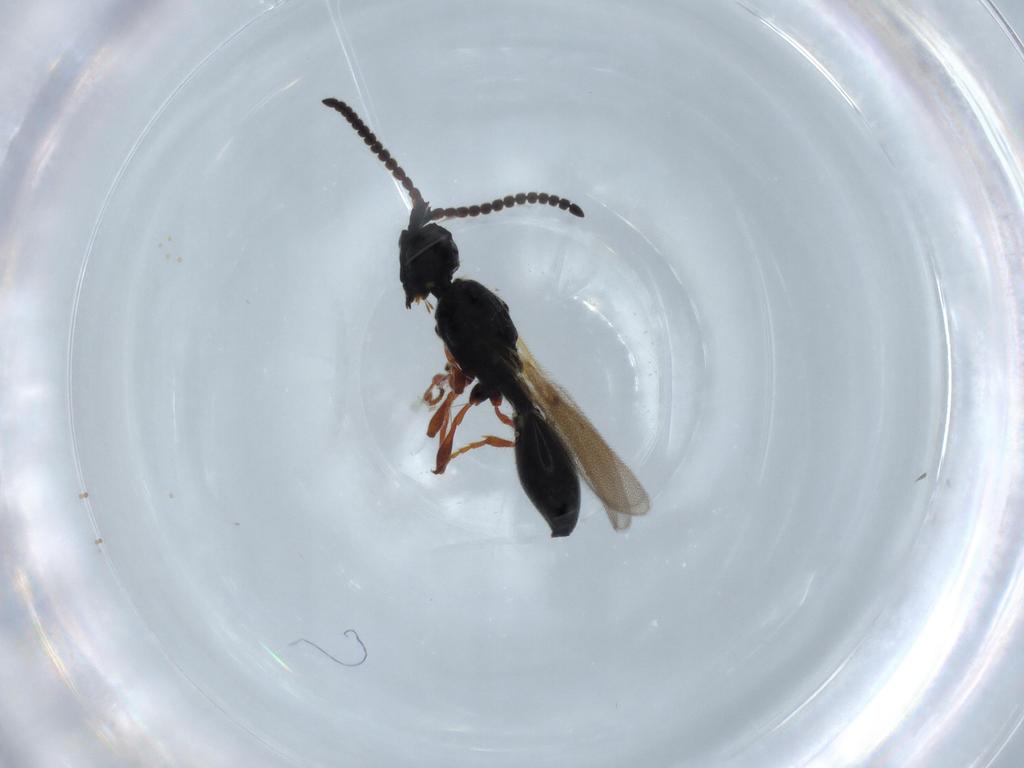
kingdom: Animalia
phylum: Arthropoda
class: Insecta
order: Hymenoptera
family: Diapriidae
